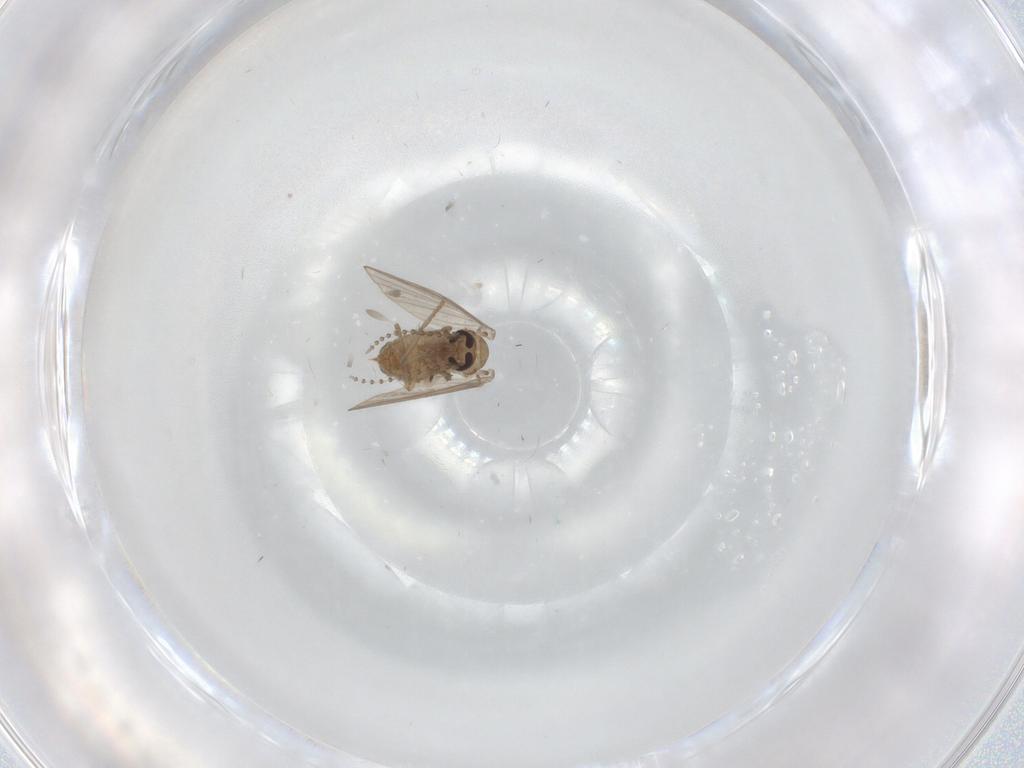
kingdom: Animalia
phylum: Arthropoda
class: Insecta
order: Diptera
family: Psychodidae
